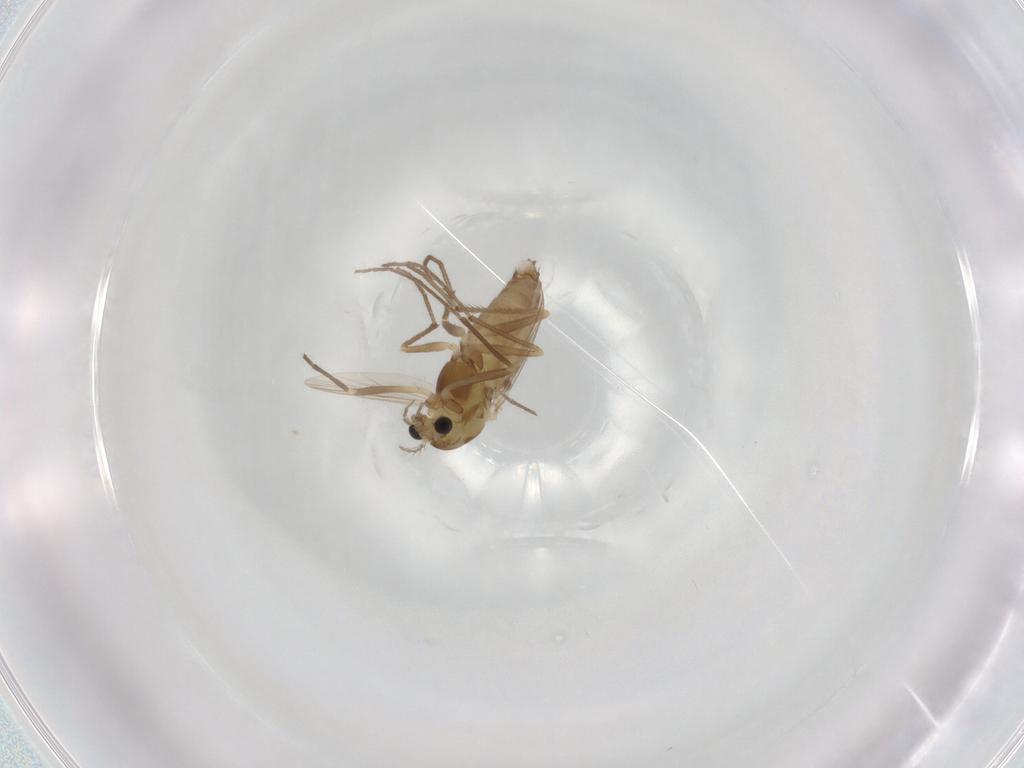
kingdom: Animalia
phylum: Arthropoda
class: Insecta
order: Diptera
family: Chironomidae
